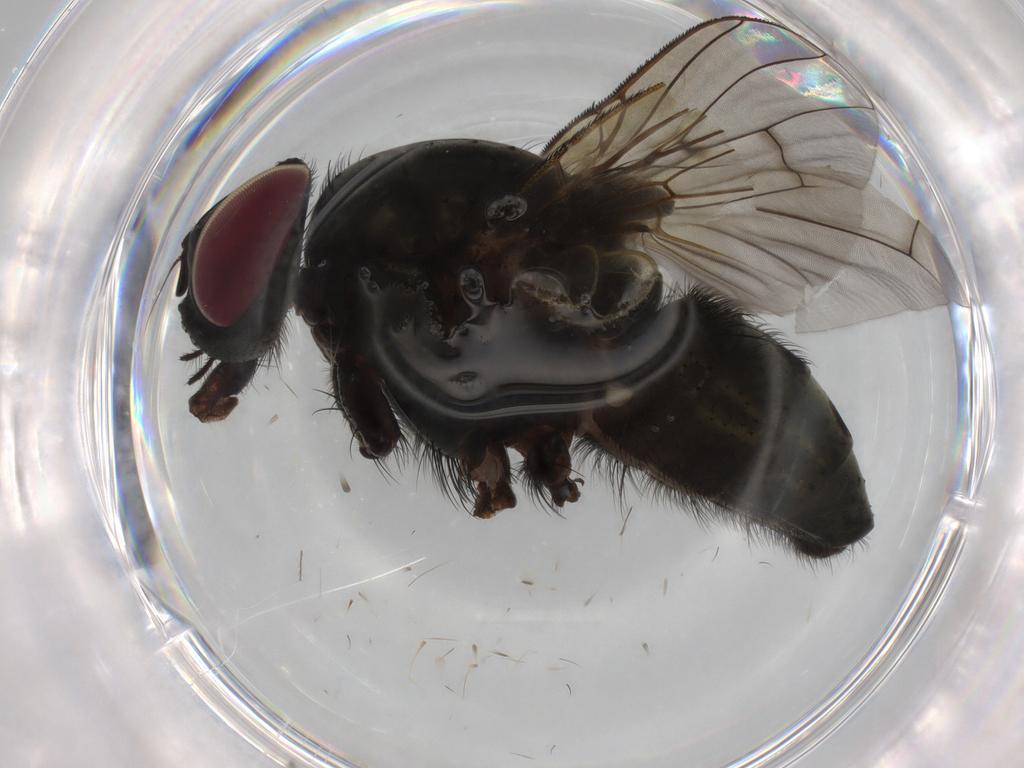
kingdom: Animalia
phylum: Arthropoda
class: Insecta
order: Diptera
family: Muscidae
